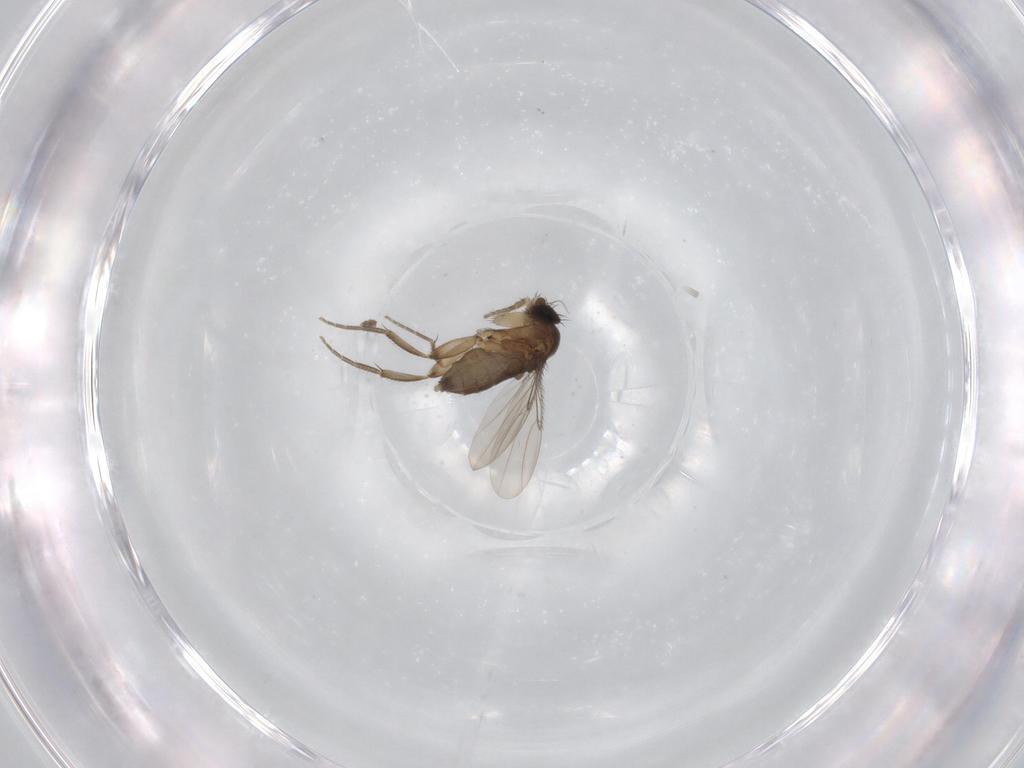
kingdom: Animalia
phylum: Arthropoda
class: Insecta
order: Diptera
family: Phoridae
